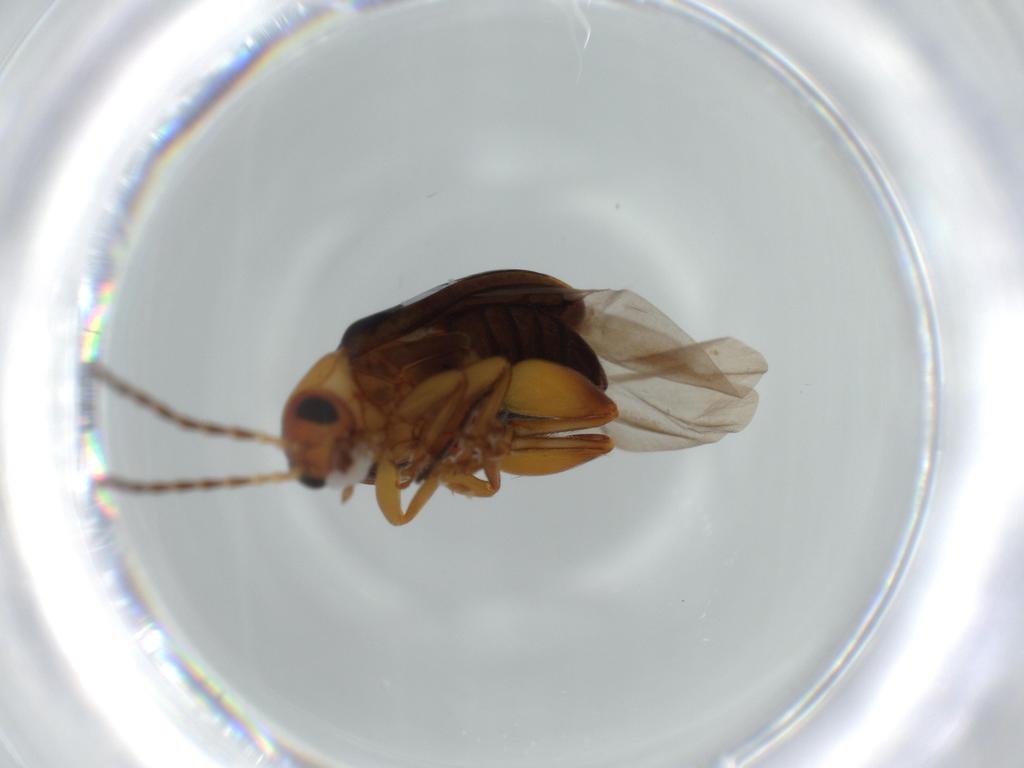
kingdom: Animalia
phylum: Arthropoda
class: Insecta
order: Coleoptera
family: Chrysomelidae
